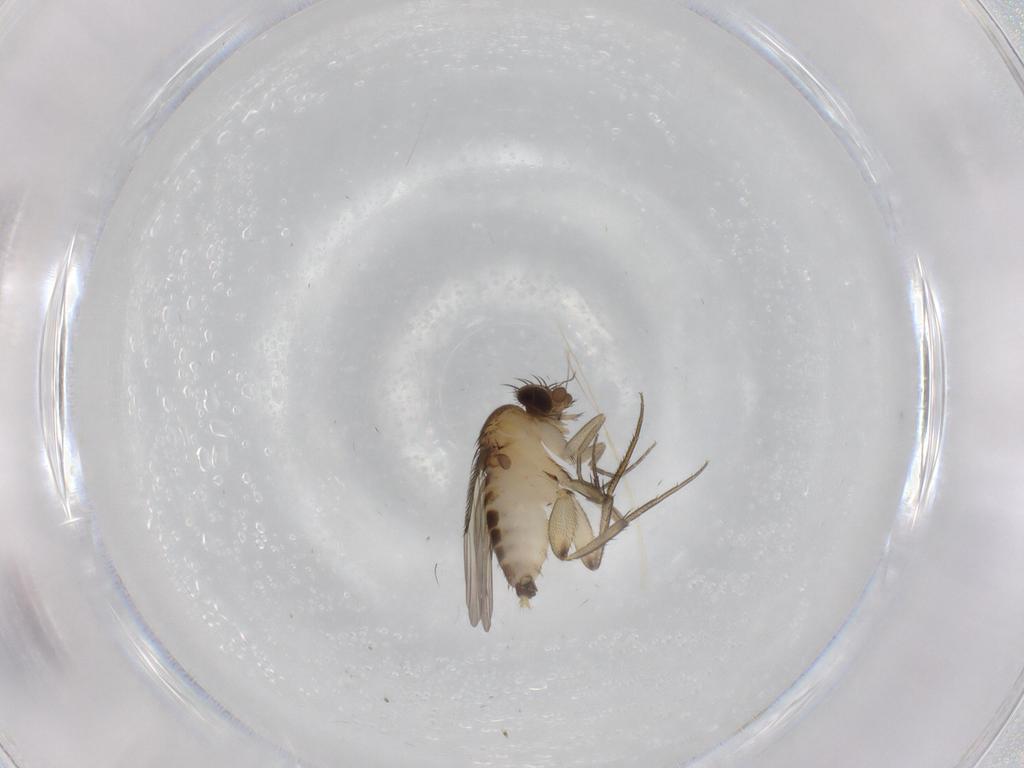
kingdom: Animalia
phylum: Arthropoda
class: Insecta
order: Diptera
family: Phoridae
